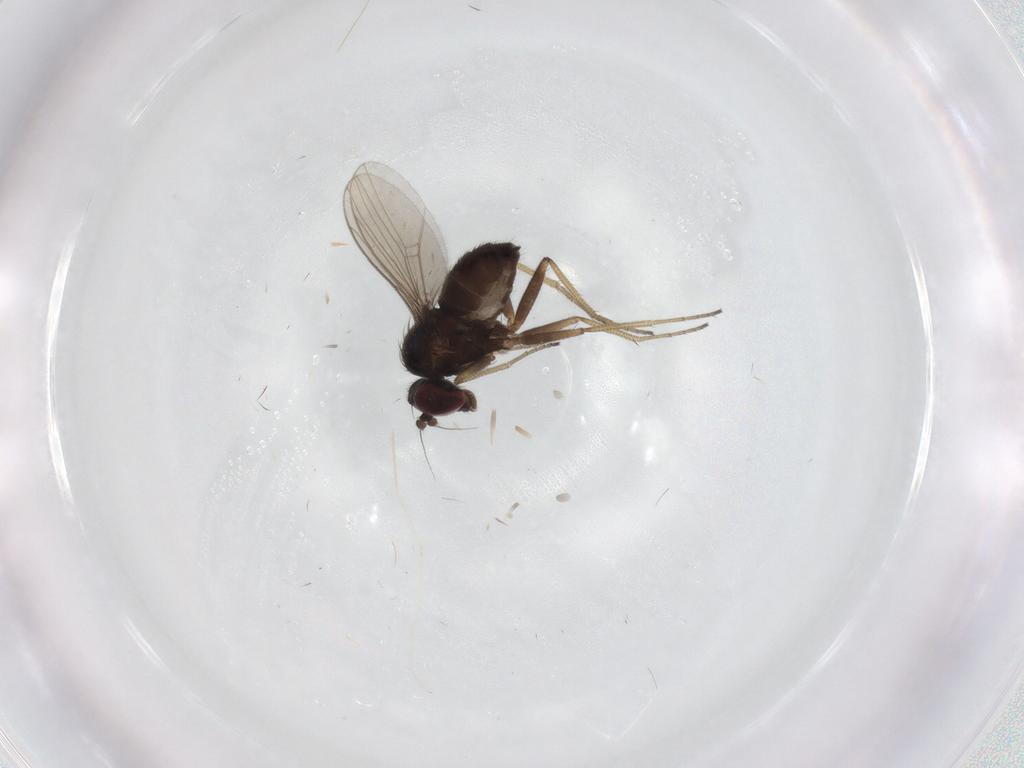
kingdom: Animalia
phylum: Arthropoda
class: Insecta
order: Diptera
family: Dolichopodidae
